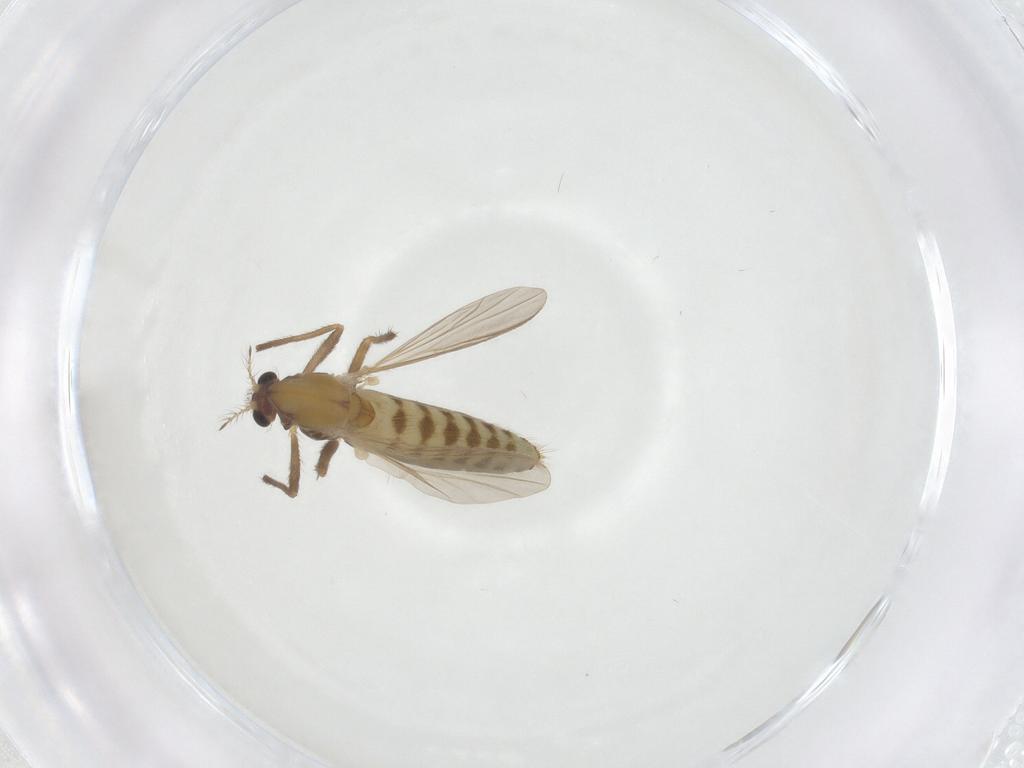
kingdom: Animalia
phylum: Arthropoda
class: Insecta
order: Diptera
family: Chironomidae
